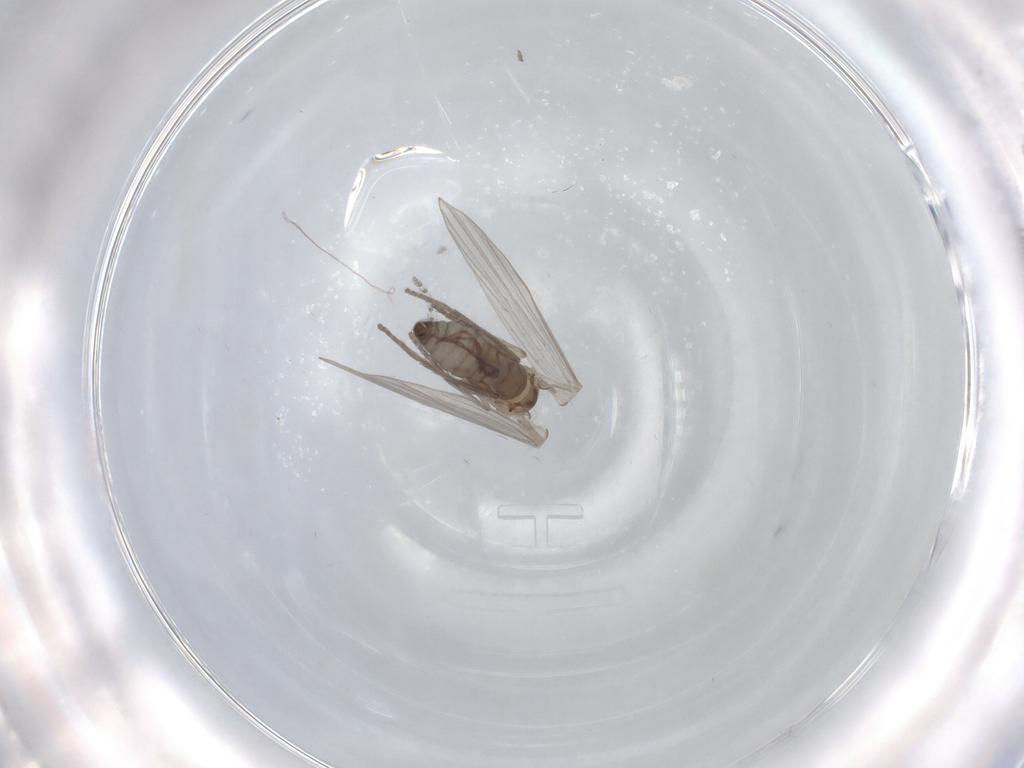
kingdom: Animalia
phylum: Arthropoda
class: Insecta
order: Diptera
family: Psychodidae
